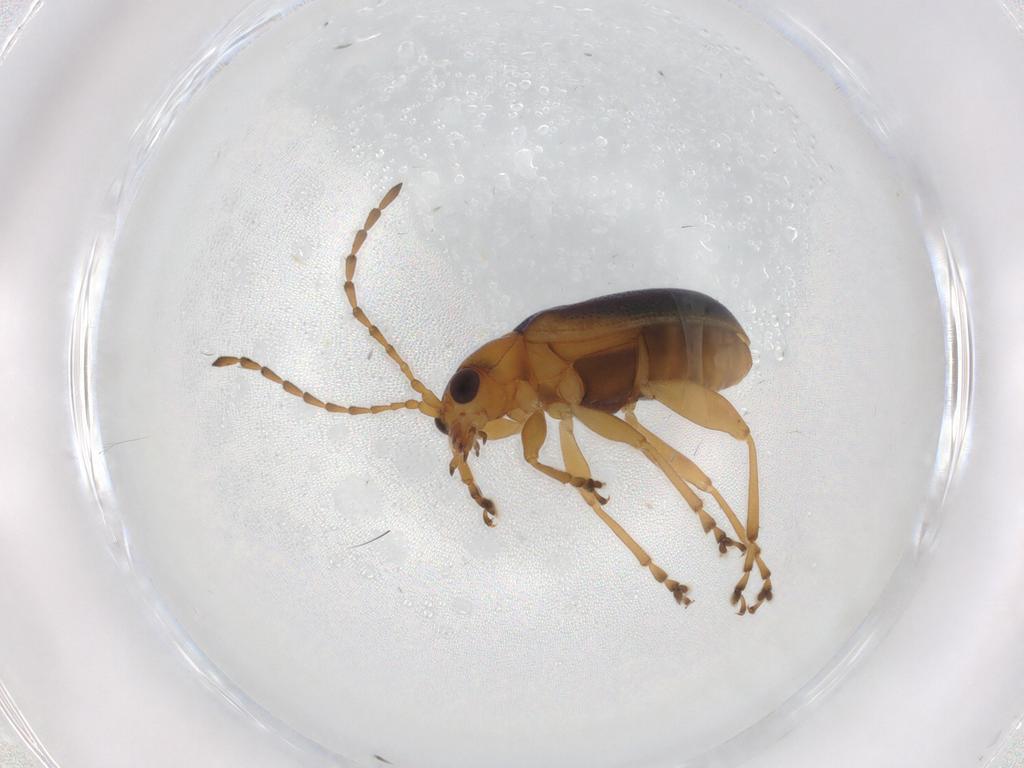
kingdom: Animalia
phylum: Arthropoda
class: Insecta
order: Coleoptera
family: Chrysomelidae
